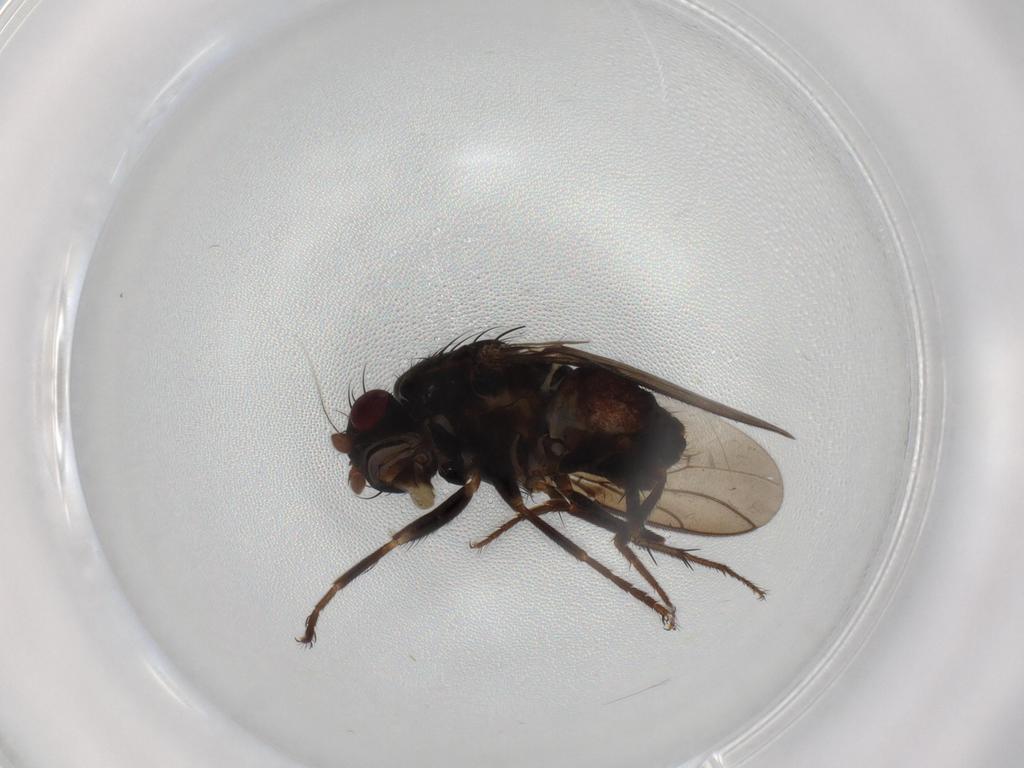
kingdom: Animalia
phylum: Arthropoda
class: Insecta
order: Diptera
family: Sphaeroceridae
